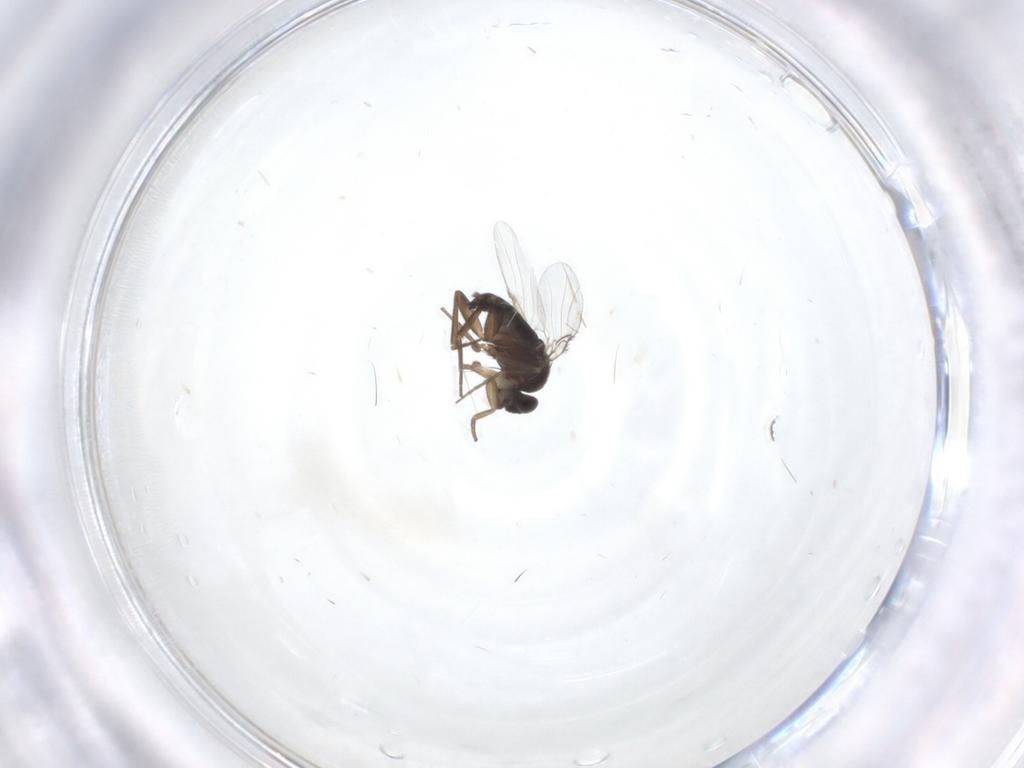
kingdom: Animalia
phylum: Arthropoda
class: Insecta
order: Diptera
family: Phoridae
